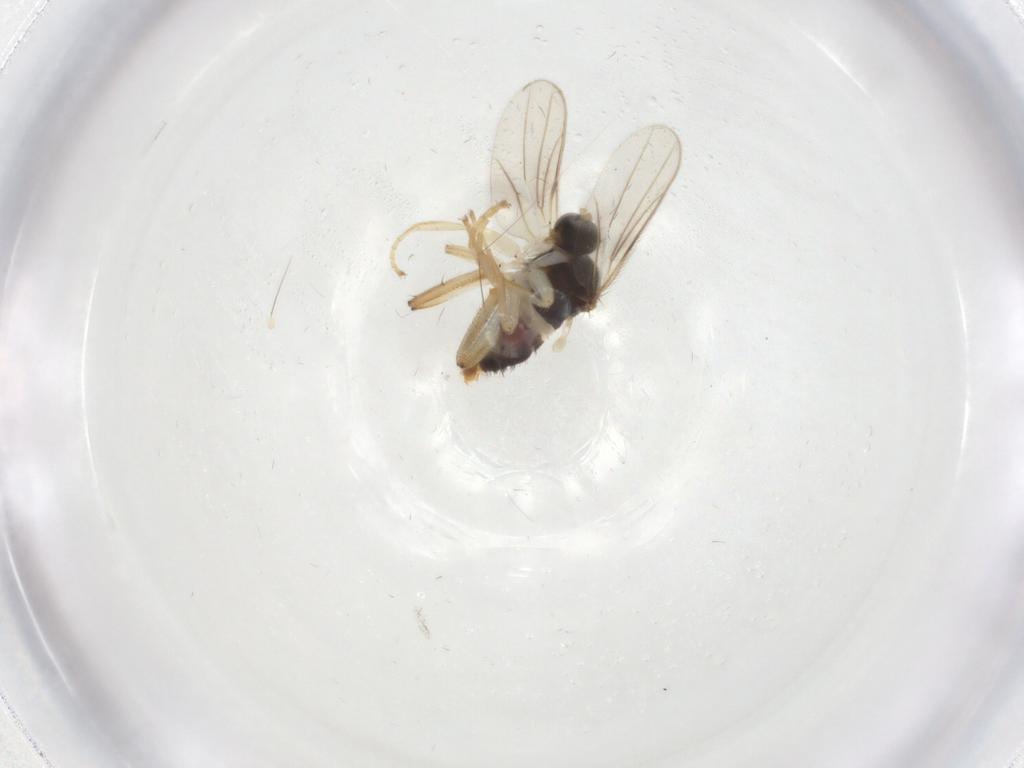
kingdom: Animalia
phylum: Arthropoda
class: Insecta
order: Diptera
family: Hybotidae
